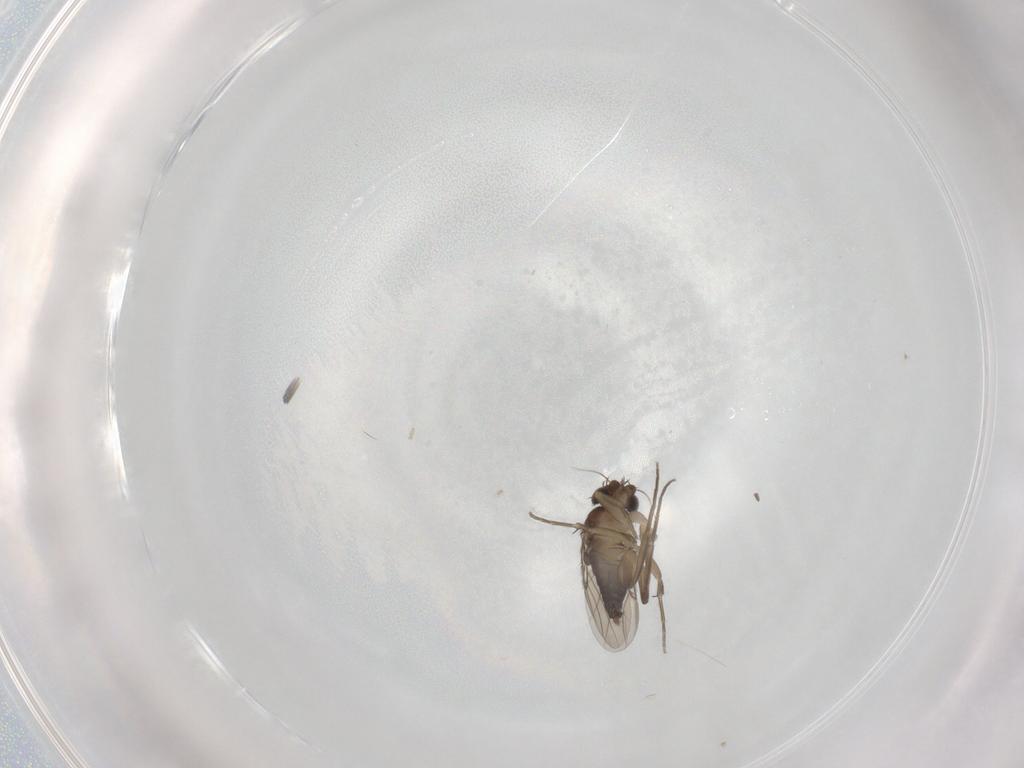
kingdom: Animalia
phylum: Arthropoda
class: Insecta
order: Diptera
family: Phoridae
